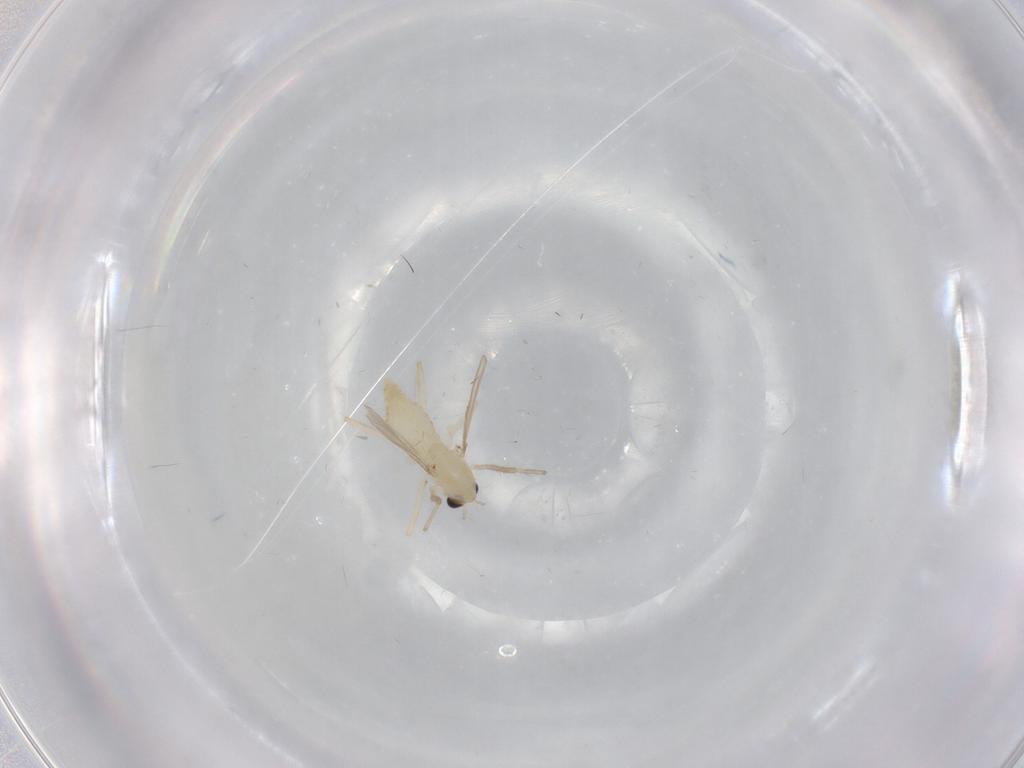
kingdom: Animalia
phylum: Arthropoda
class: Insecta
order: Diptera
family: Chironomidae
